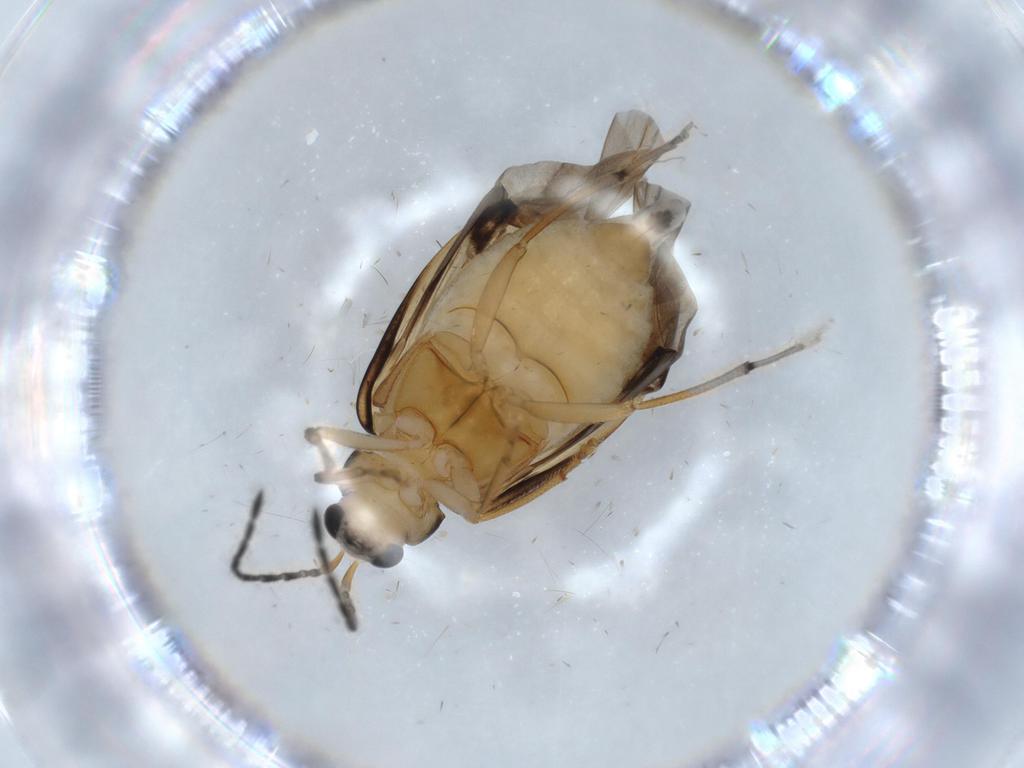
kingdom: Animalia
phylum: Arthropoda
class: Insecta
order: Coleoptera
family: Chrysomelidae
